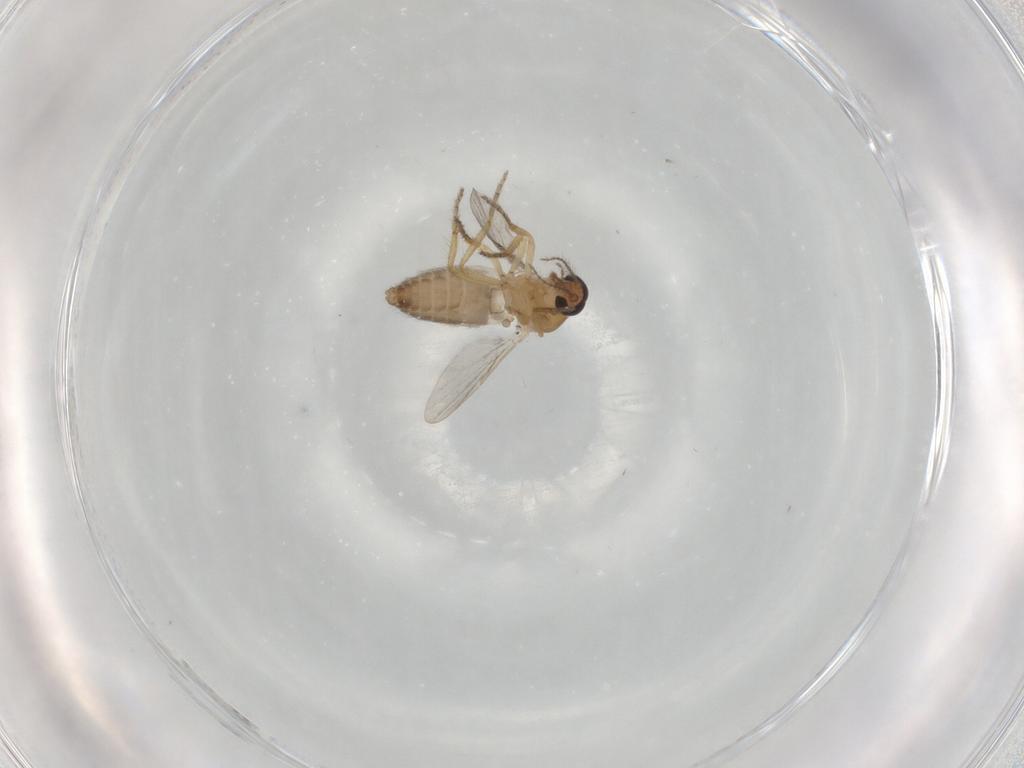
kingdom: Animalia
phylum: Arthropoda
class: Insecta
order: Diptera
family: Ceratopogonidae
